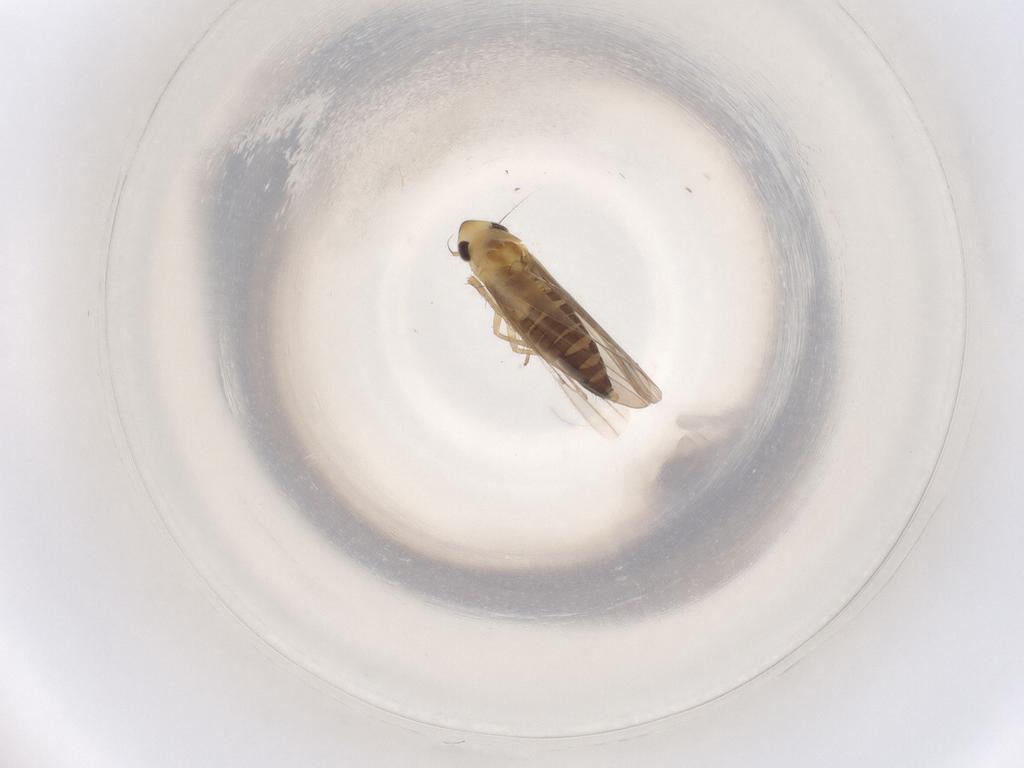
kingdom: Animalia
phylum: Arthropoda
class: Insecta
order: Hemiptera
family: Cicadellidae
